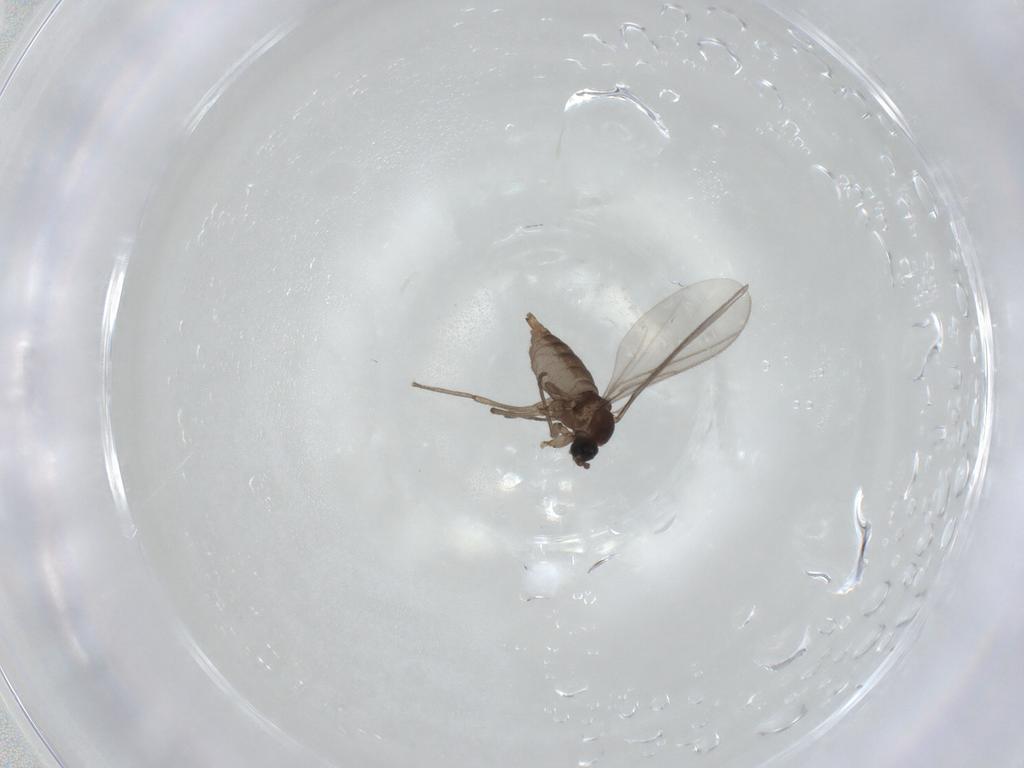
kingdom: Animalia
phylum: Arthropoda
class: Insecta
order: Diptera
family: Sciaridae
